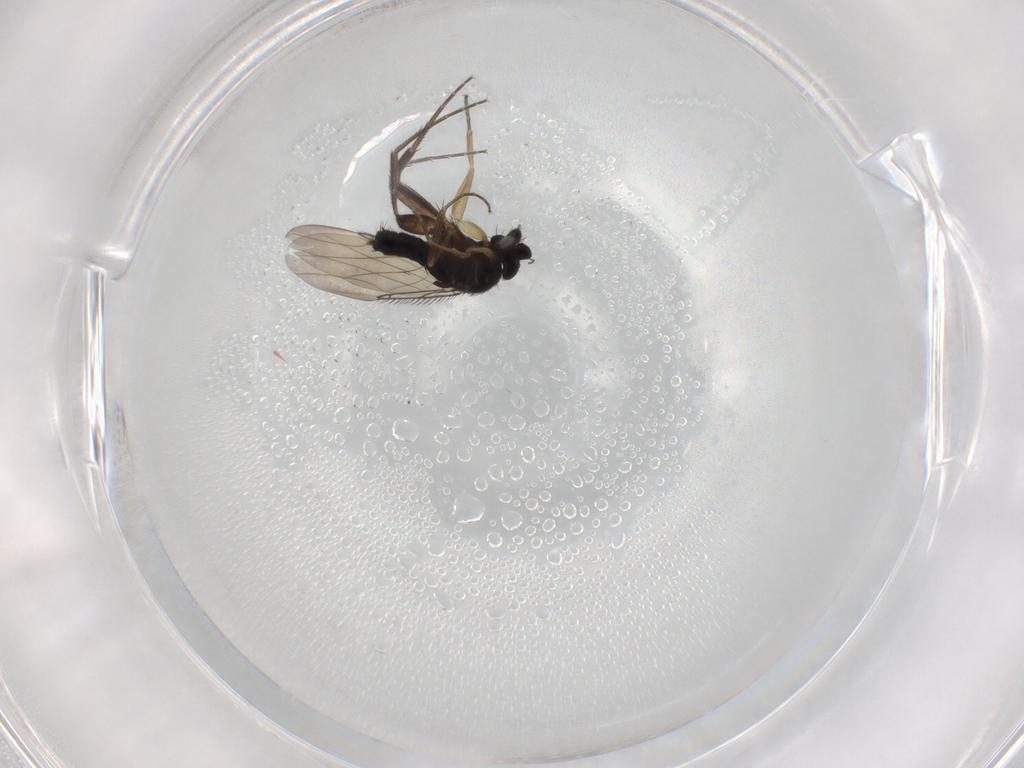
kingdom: Animalia
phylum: Arthropoda
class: Insecta
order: Diptera
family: Phoridae
